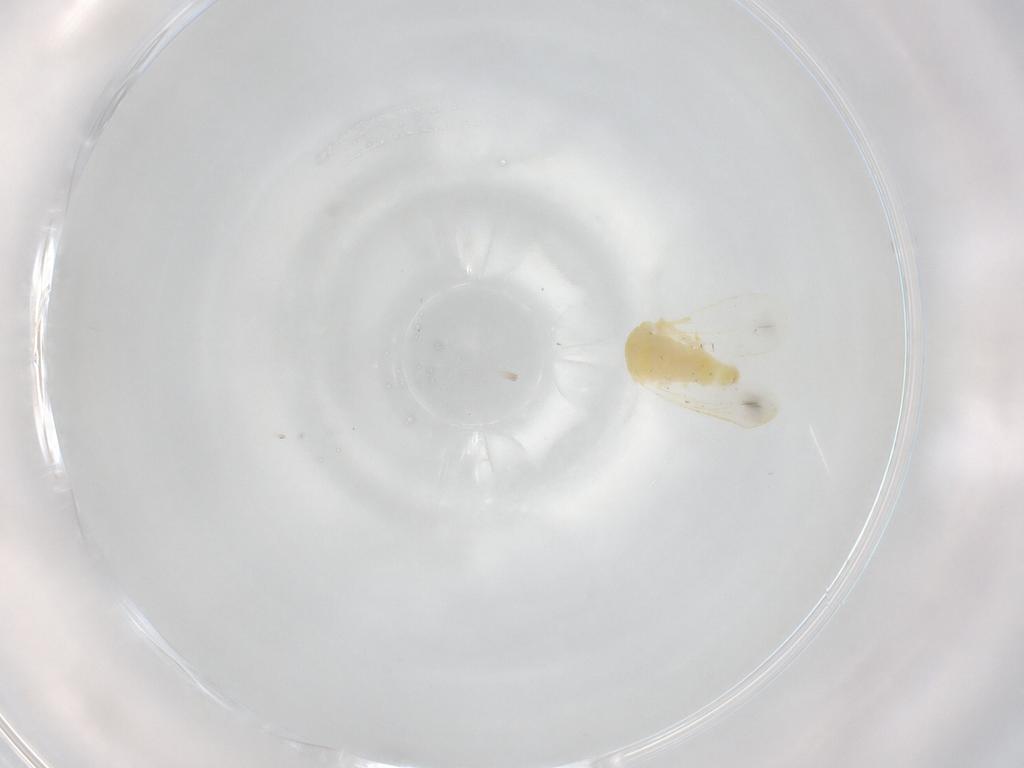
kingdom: Animalia
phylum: Arthropoda
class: Insecta
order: Hemiptera
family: Aleyrodidae
